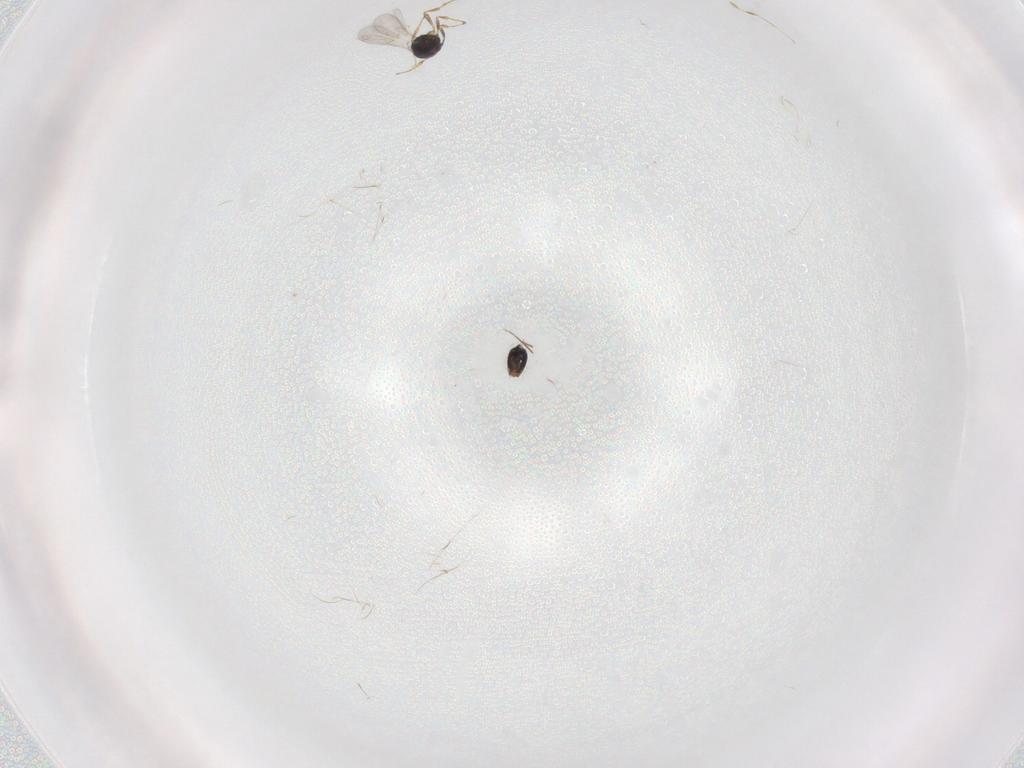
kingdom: Animalia
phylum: Arthropoda
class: Insecta
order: Hymenoptera
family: Scelionidae
